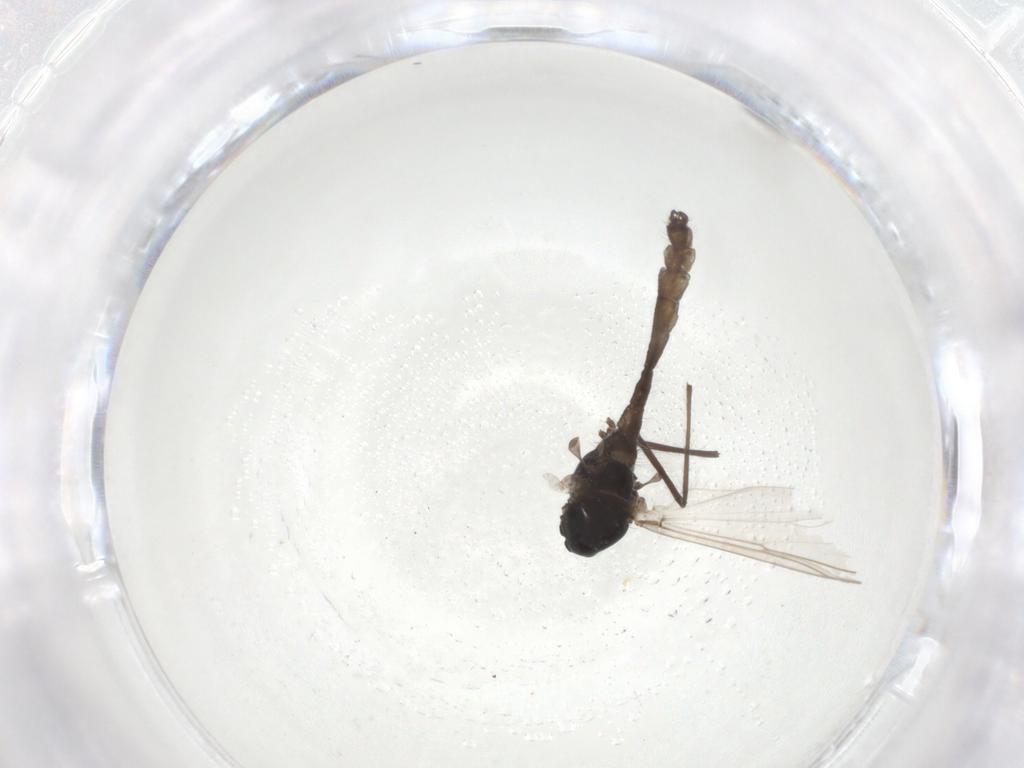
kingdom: Animalia
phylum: Arthropoda
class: Insecta
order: Diptera
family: Chironomidae
